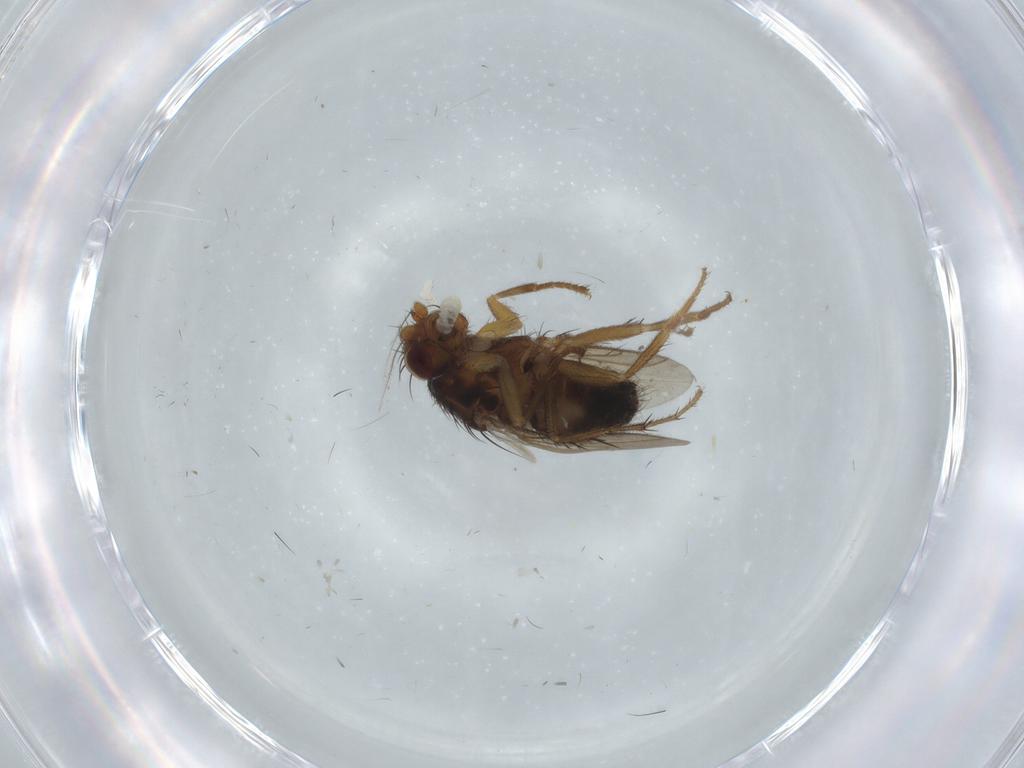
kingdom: Animalia
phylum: Arthropoda
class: Insecta
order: Diptera
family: Sphaeroceridae
